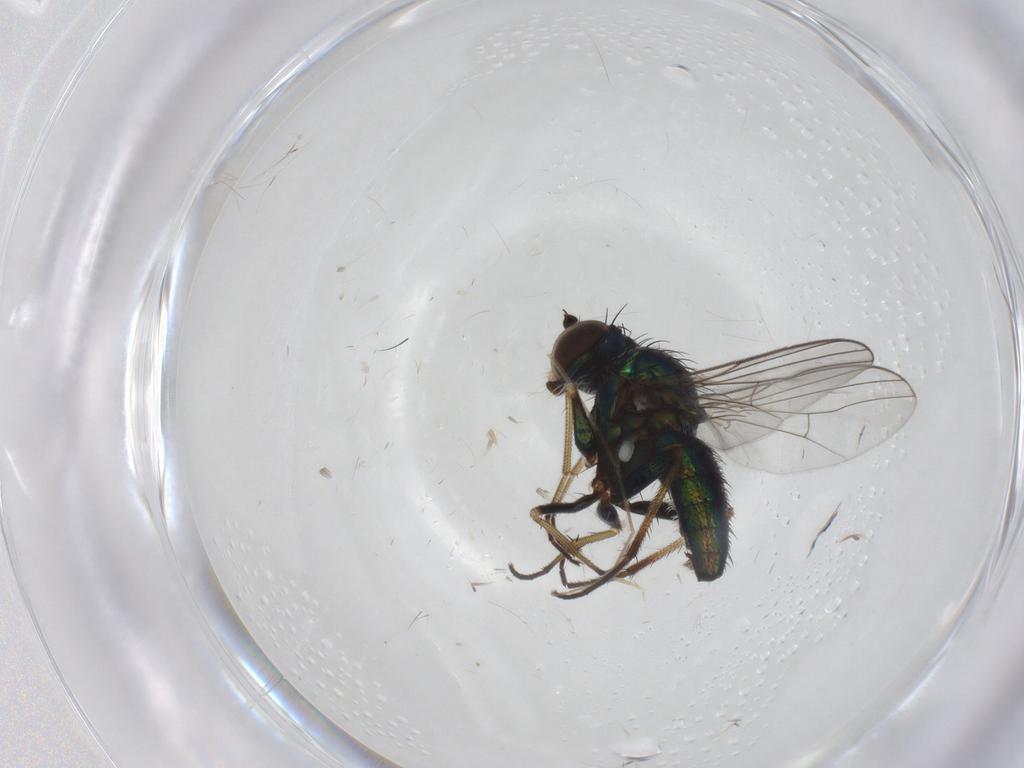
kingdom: Animalia
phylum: Arthropoda
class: Insecta
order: Diptera
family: Dolichopodidae
